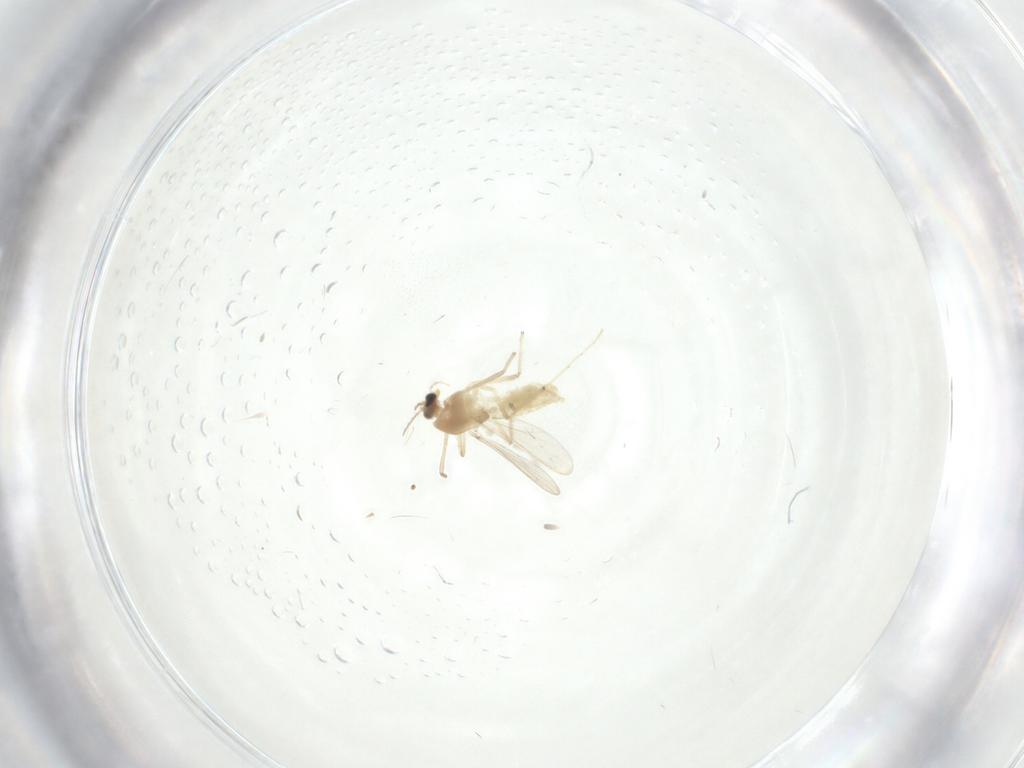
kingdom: Animalia
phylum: Arthropoda
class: Insecta
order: Diptera
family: Chironomidae
